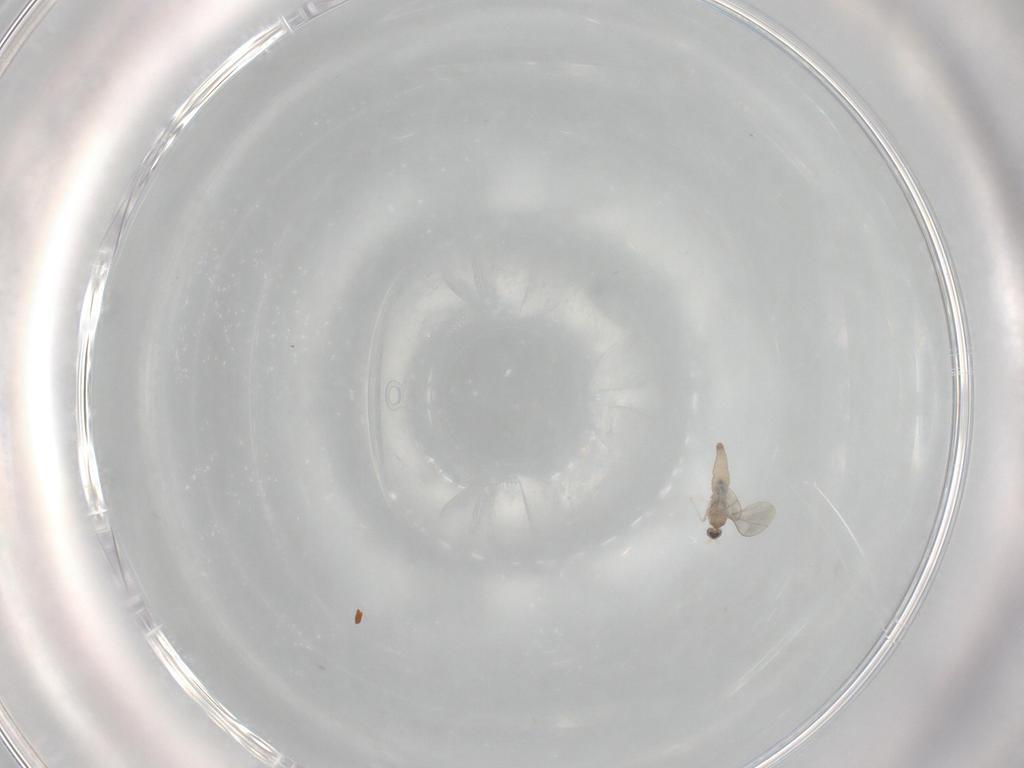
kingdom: Animalia
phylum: Arthropoda
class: Insecta
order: Diptera
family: Cecidomyiidae
